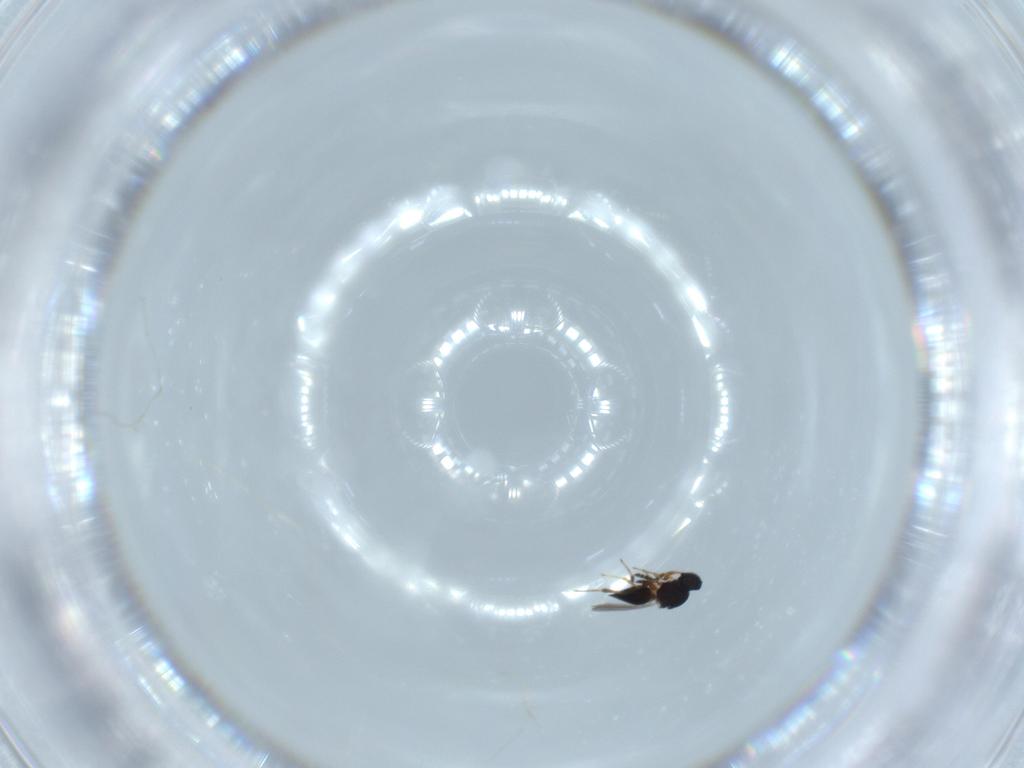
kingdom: Animalia
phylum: Arthropoda
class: Insecta
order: Hymenoptera
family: Platygastridae
